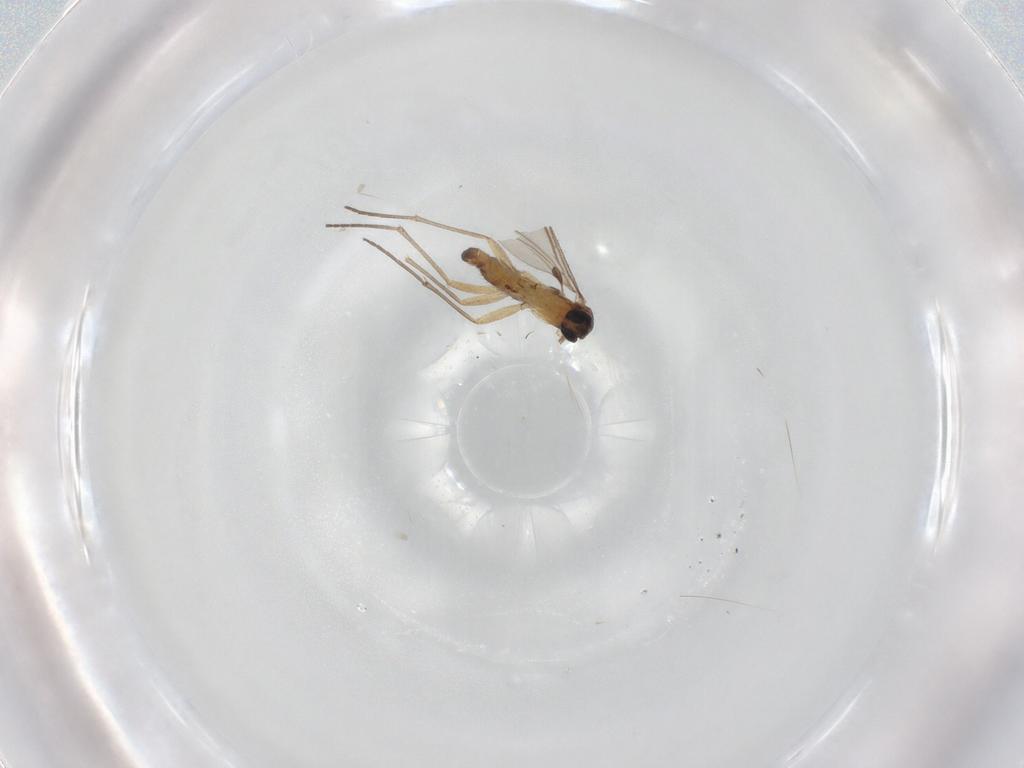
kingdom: Animalia
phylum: Arthropoda
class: Insecta
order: Diptera
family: Sciaridae
